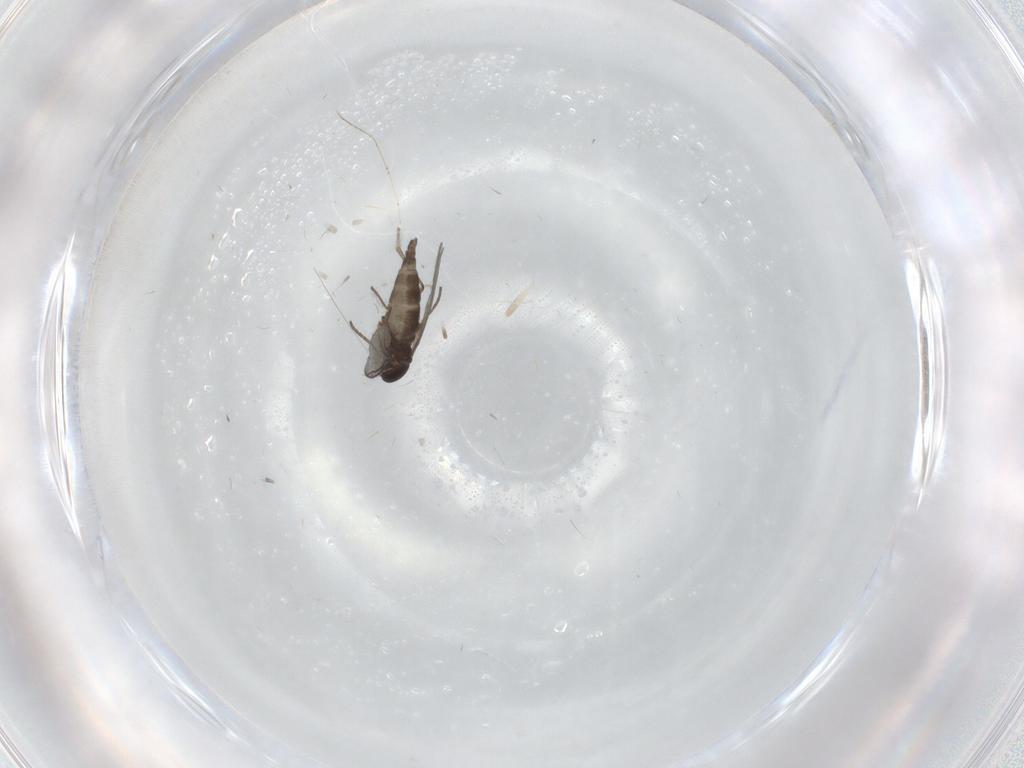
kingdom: Animalia
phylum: Arthropoda
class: Insecta
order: Diptera
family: Sciaridae
